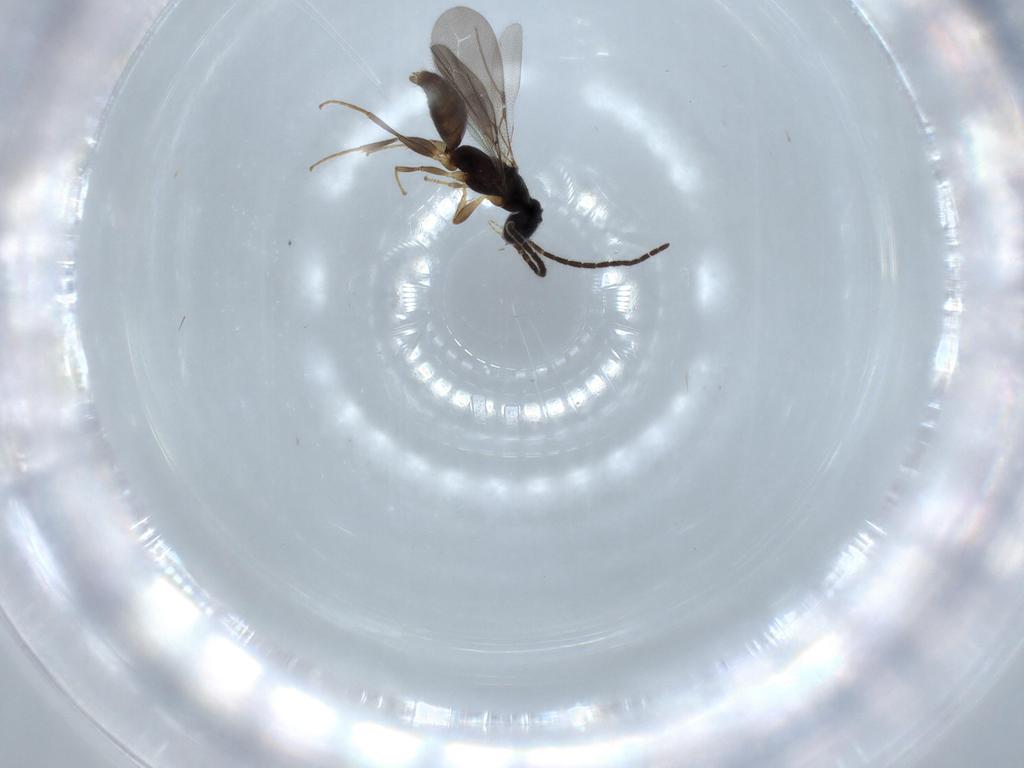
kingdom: Animalia
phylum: Arthropoda
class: Insecta
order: Hymenoptera
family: Bethylidae
